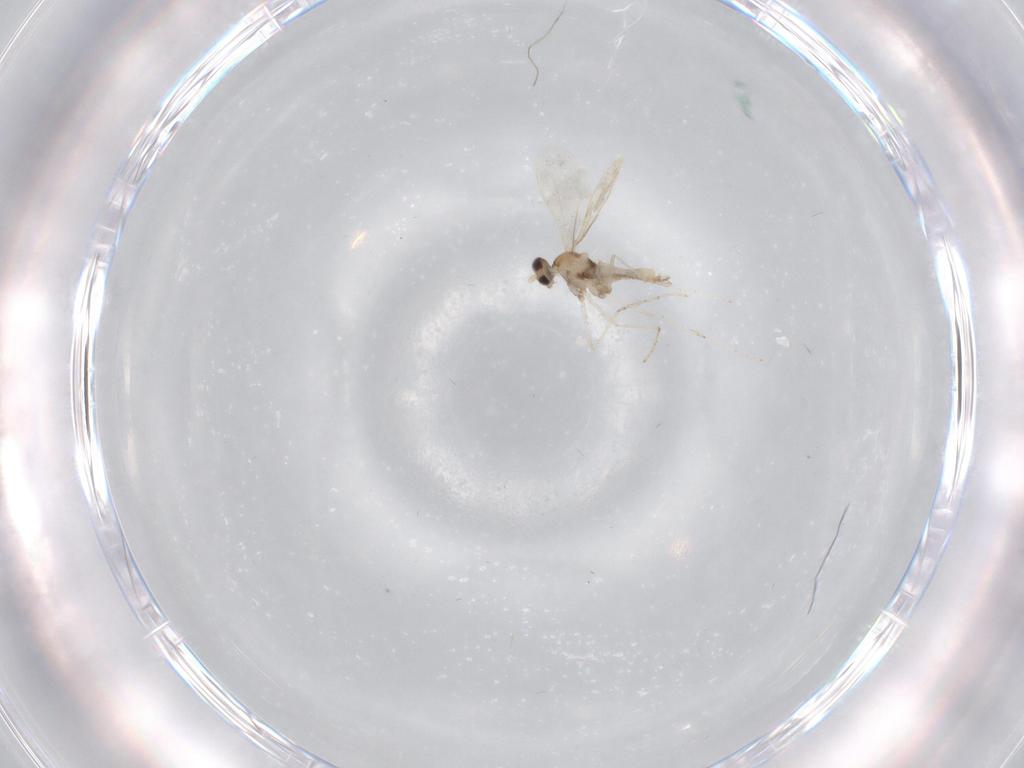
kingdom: Animalia
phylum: Arthropoda
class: Insecta
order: Diptera
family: Cecidomyiidae
